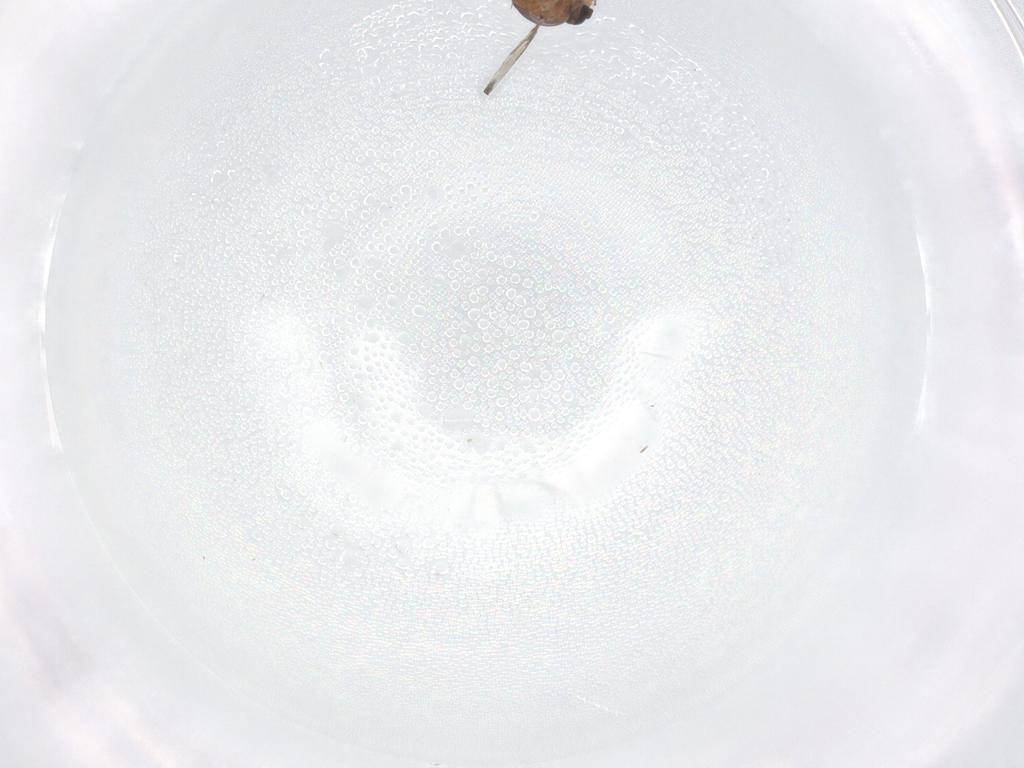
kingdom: Animalia
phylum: Arthropoda
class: Insecta
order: Diptera
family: Ceratopogonidae
